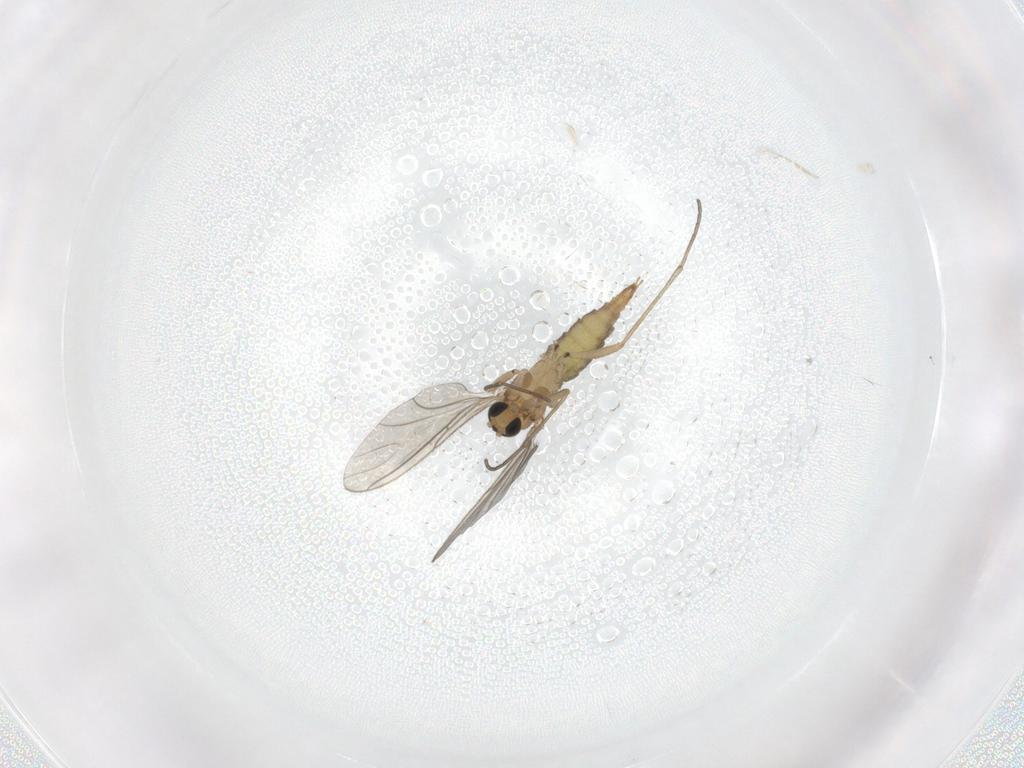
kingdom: Animalia
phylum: Arthropoda
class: Insecta
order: Diptera
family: Sciaridae
